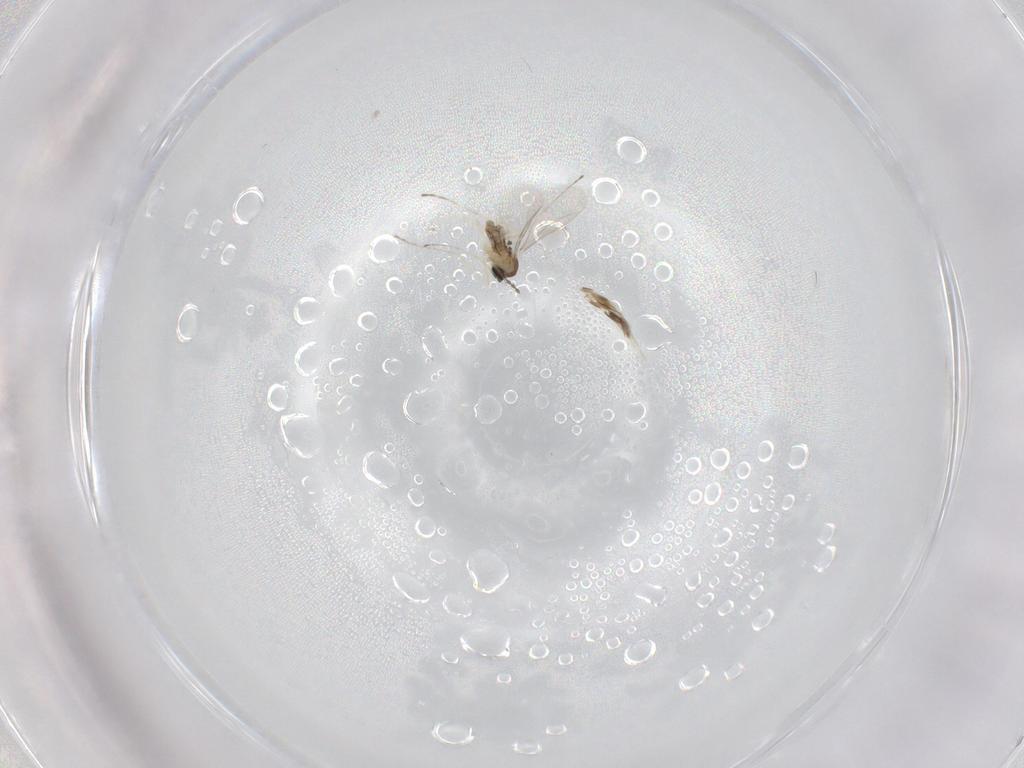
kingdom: Animalia
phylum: Arthropoda
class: Insecta
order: Diptera
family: Cecidomyiidae
